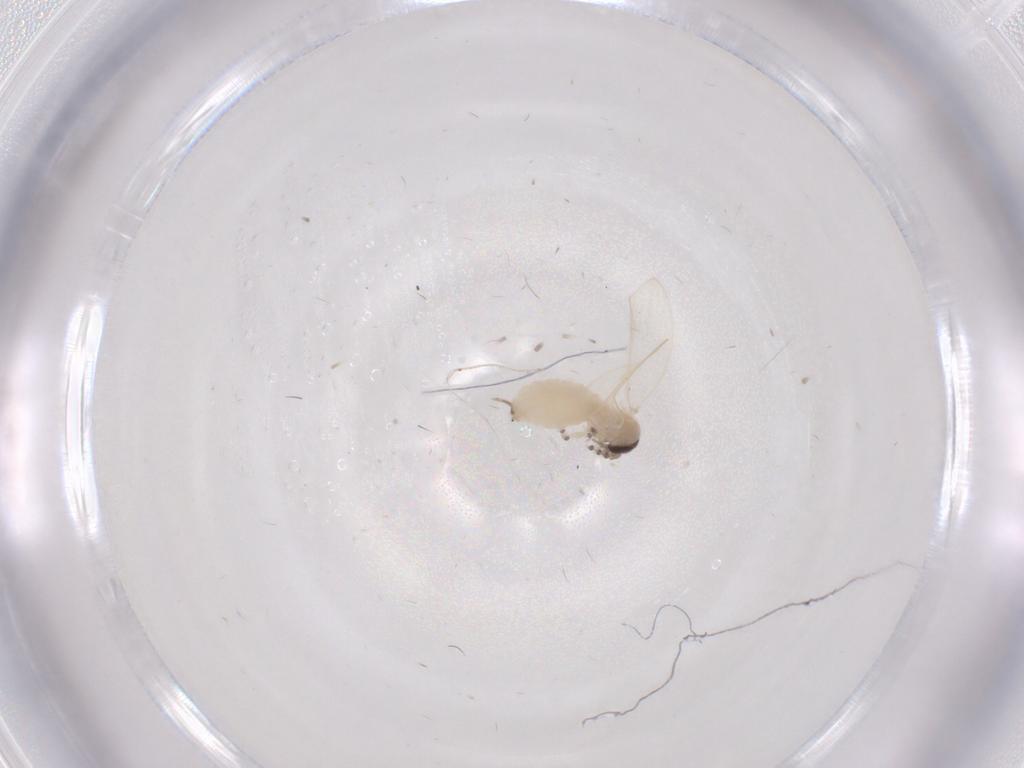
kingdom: Animalia
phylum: Arthropoda
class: Insecta
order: Diptera
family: Psychodidae
